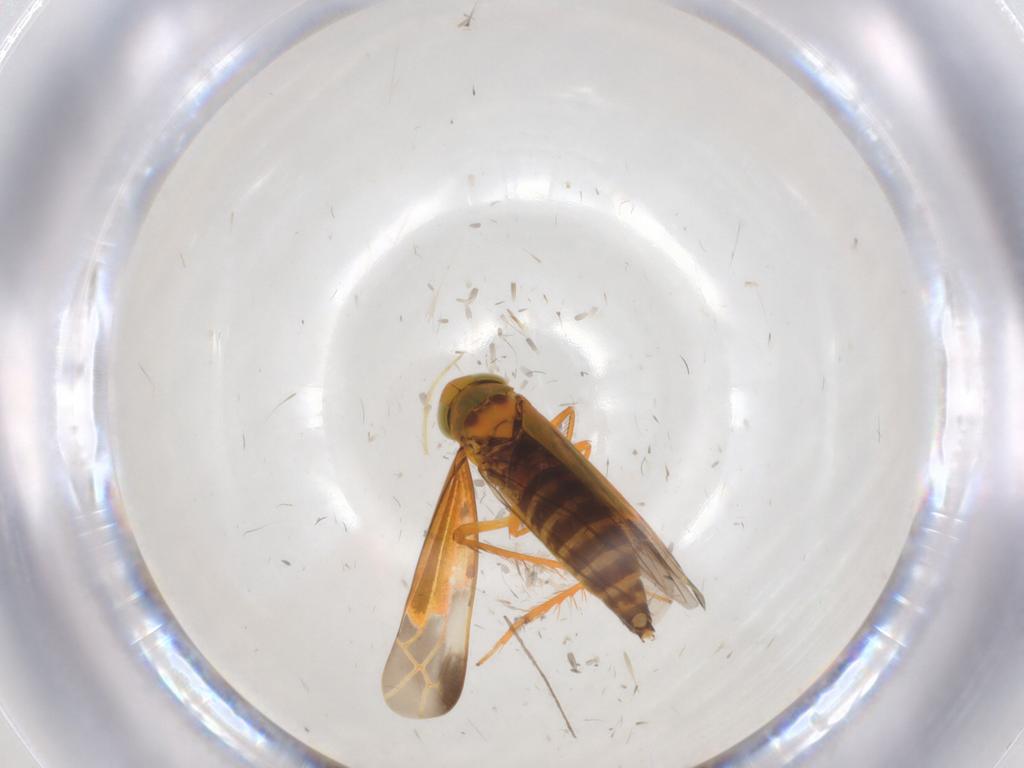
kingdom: Animalia
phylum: Arthropoda
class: Insecta
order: Hemiptera
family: Cicadellidae
